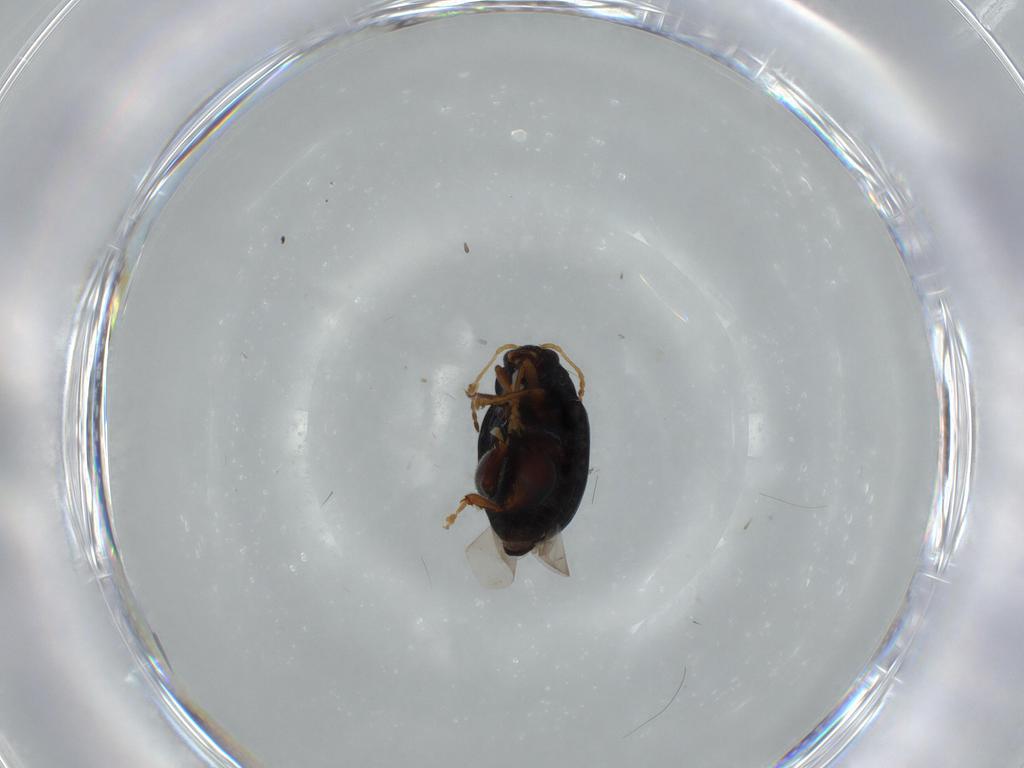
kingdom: Animalia
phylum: Arthropoda
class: Insecta
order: Coleoptera
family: Chrysomelidae
